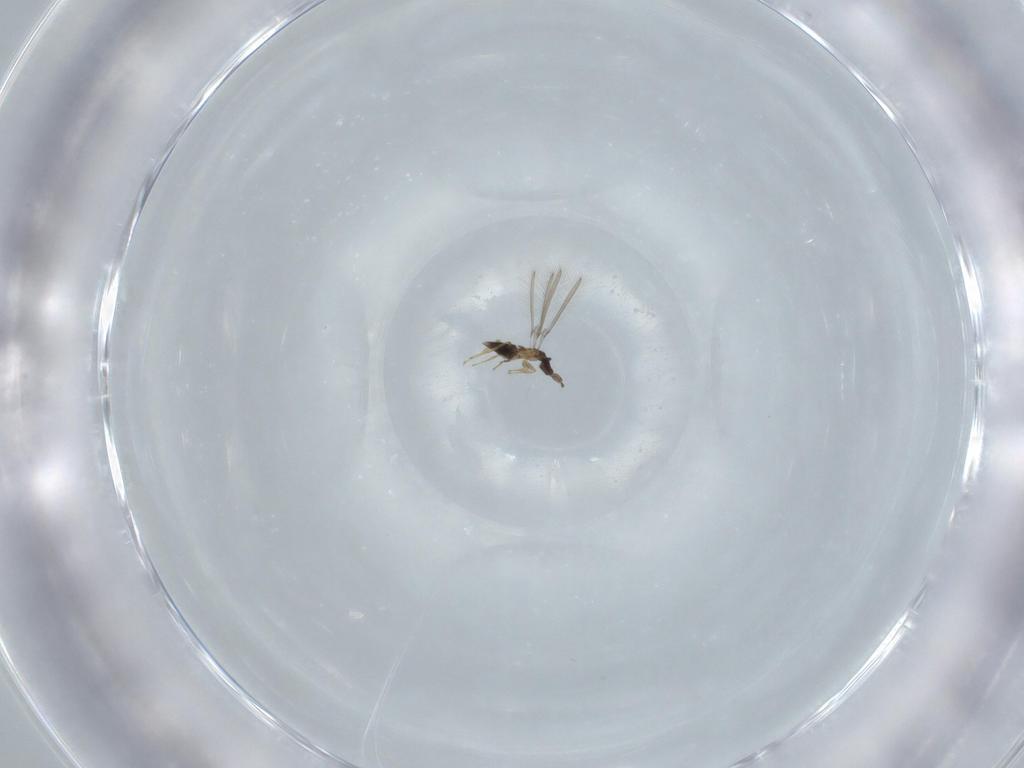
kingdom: Animalia
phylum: Arthropoda
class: Insecta
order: Hymenoptera
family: Mymaridae
